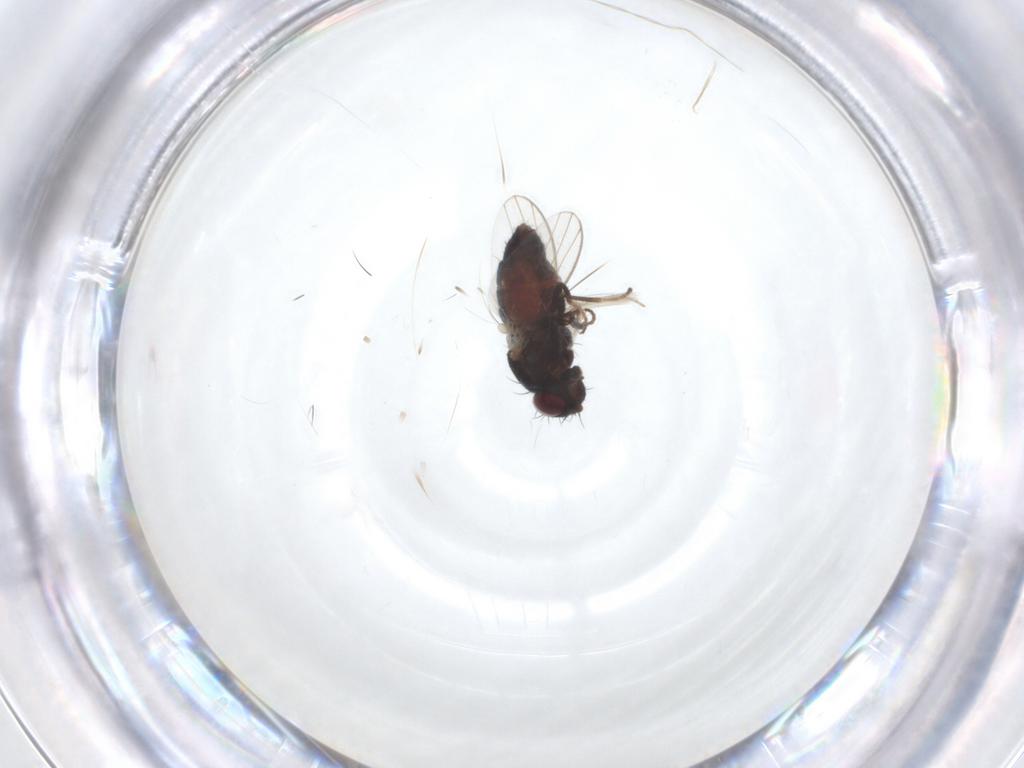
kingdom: Animalia
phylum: Arthropoda
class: Insecta
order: Diptera
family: Carnidae
